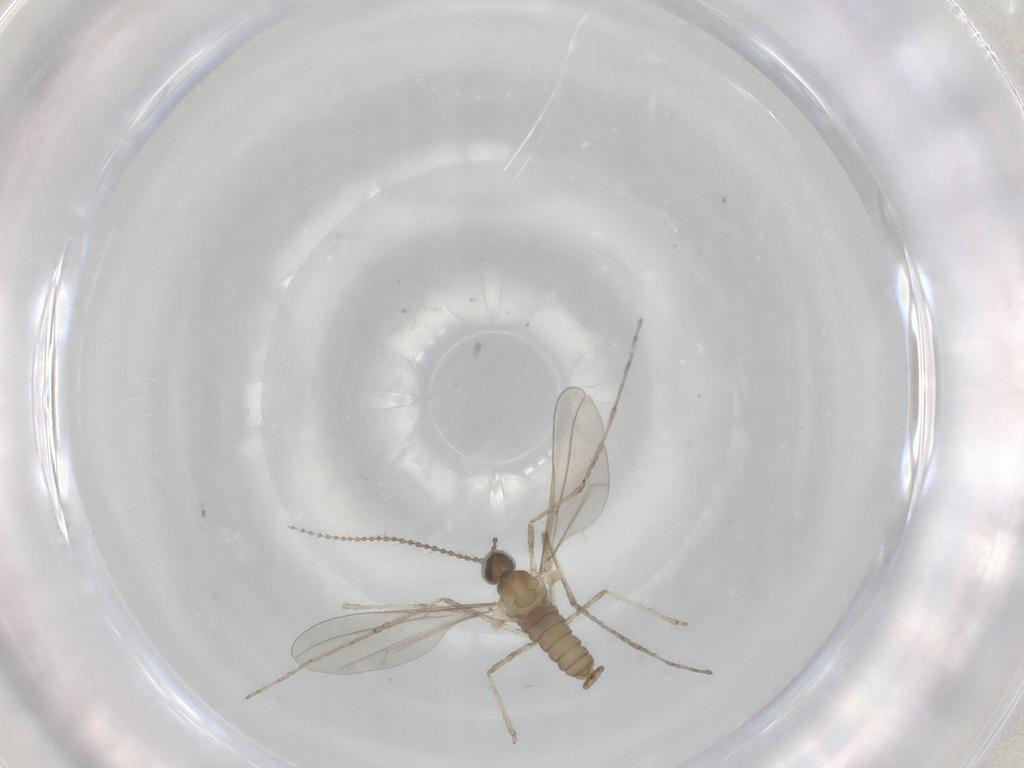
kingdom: Animalia
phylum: Arthropoda
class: Insecta
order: Diptera
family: Cecidomyiidae
